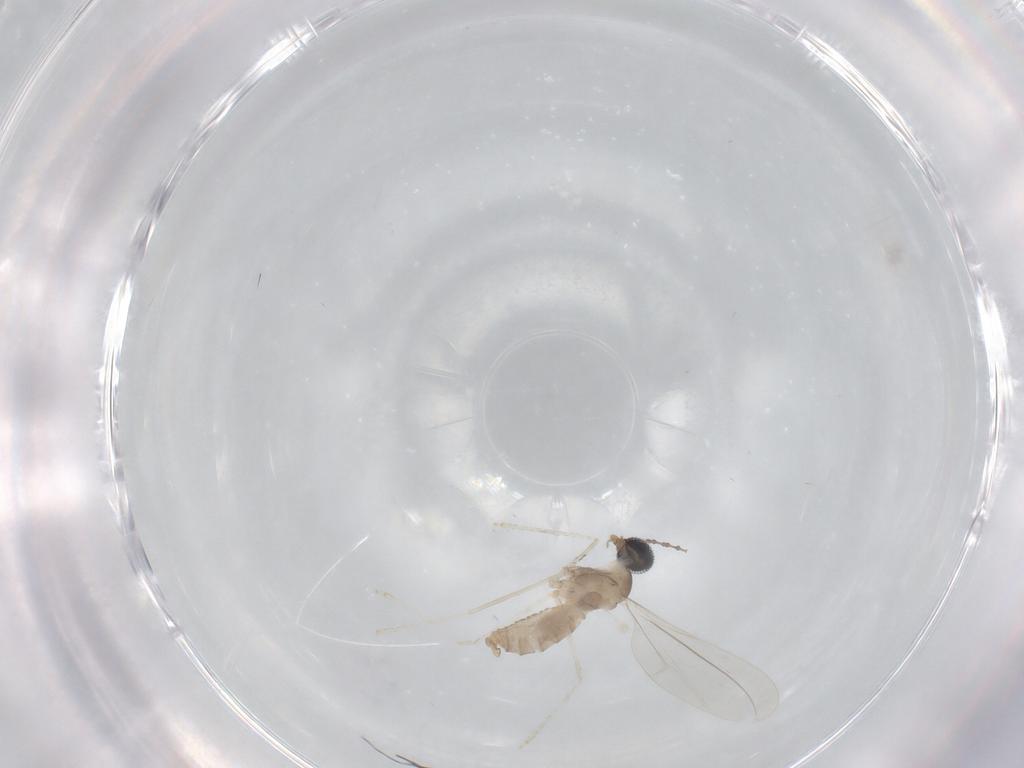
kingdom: Animalia
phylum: Arthropoda
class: Insecta
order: Diptera
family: Cecidomyiidae
